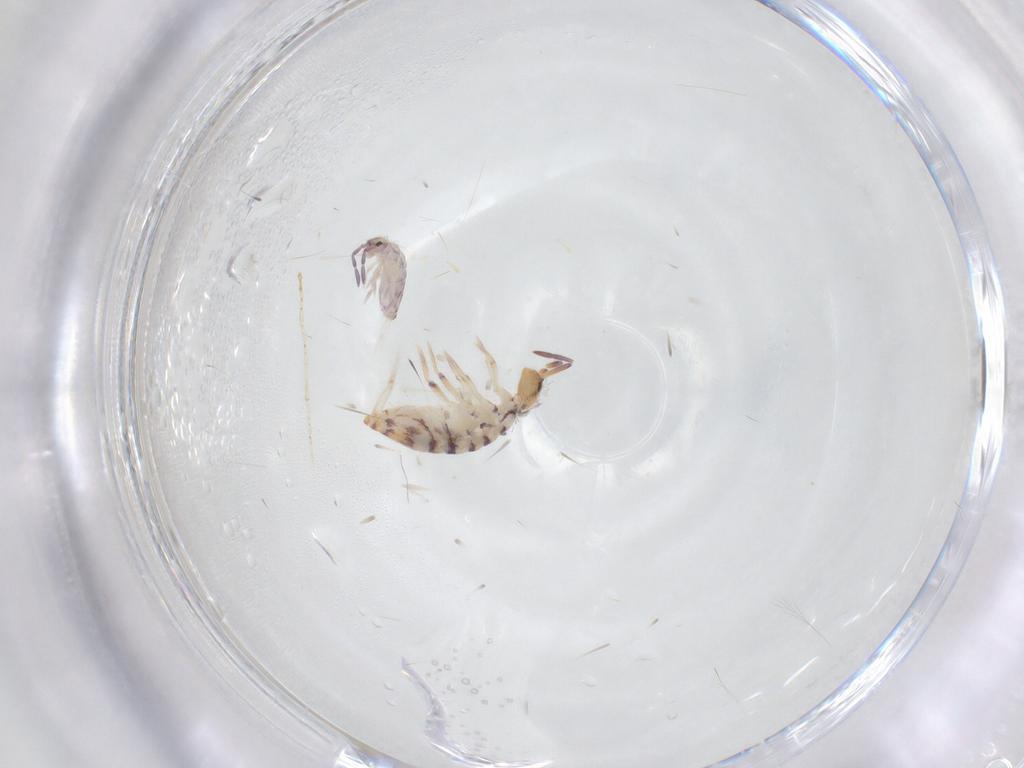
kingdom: Animalia
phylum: Arthropoda
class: Collembola
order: Entomobryomorpha
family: Entomobryidae
